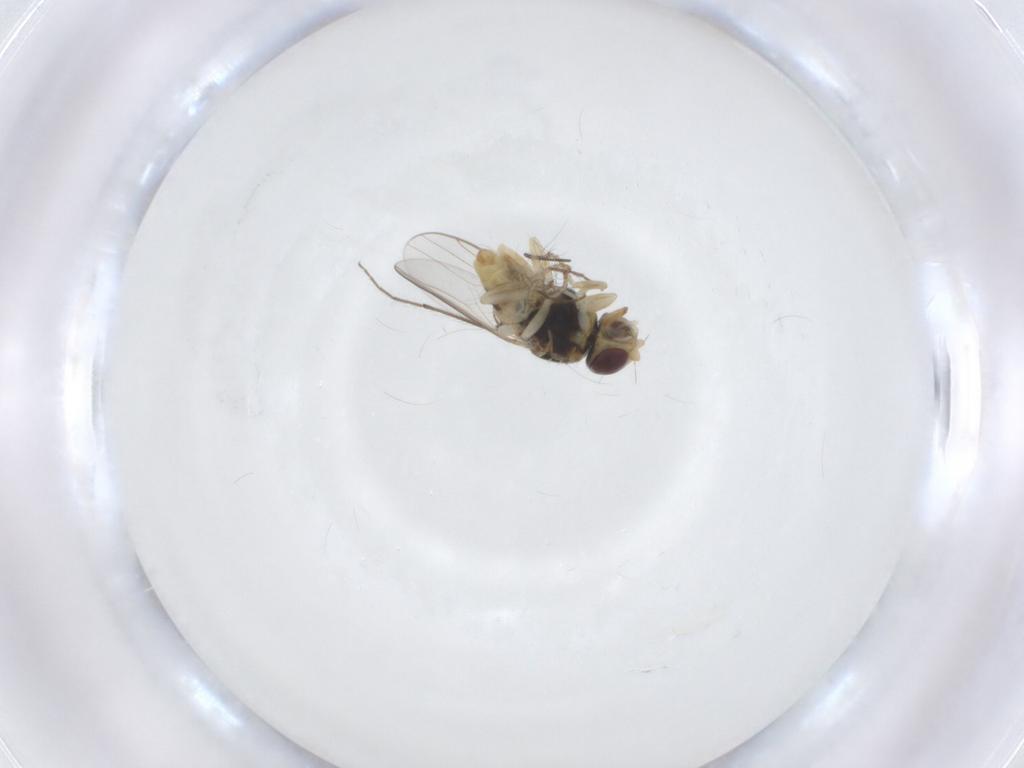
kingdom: Animalia
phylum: Arthropoda
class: Insecta
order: Diptera
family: Chloropidae
